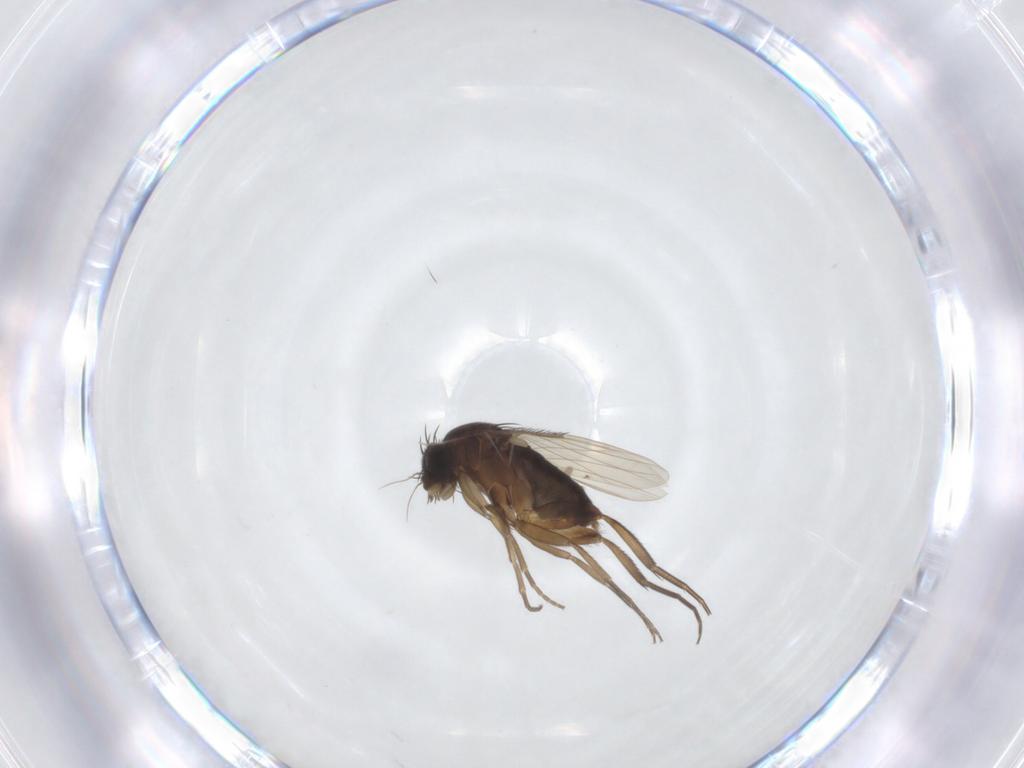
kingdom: Animalia
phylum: Arthropoda
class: Insecta
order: Diptera
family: Phoridae
